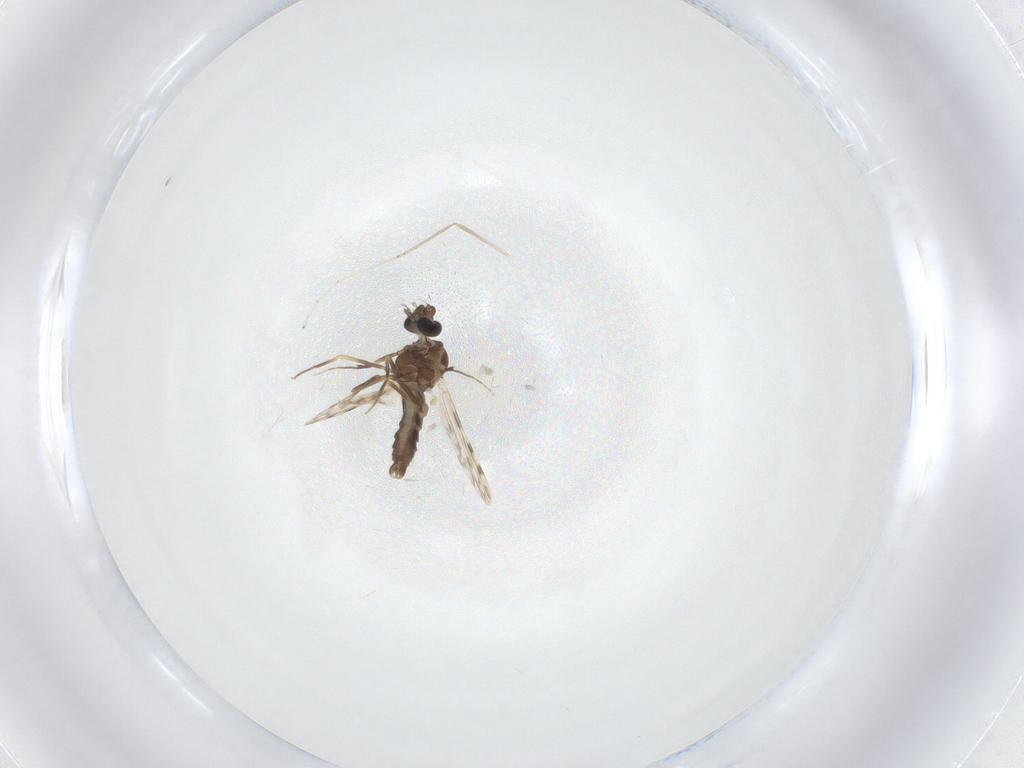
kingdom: Animalia
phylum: Arthropoda
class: Insecta
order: Diptera
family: Ceratopogonidae
